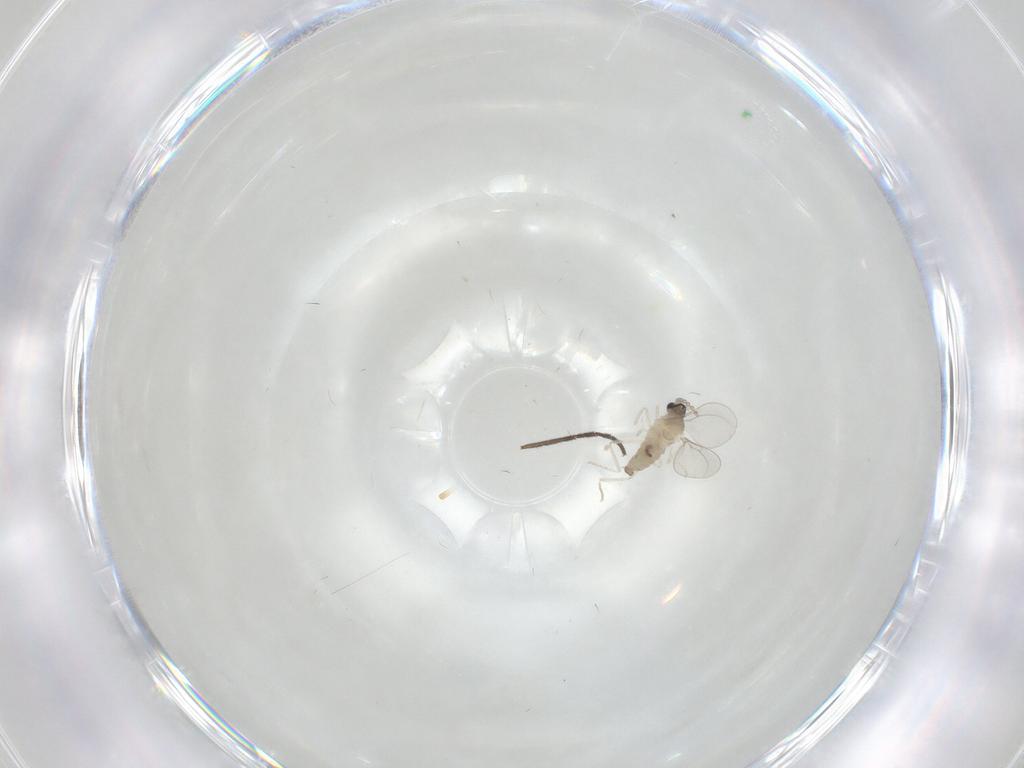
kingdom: Animalia
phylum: Arthropoda
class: Insecta
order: Diptera
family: Cecidomyiidae
